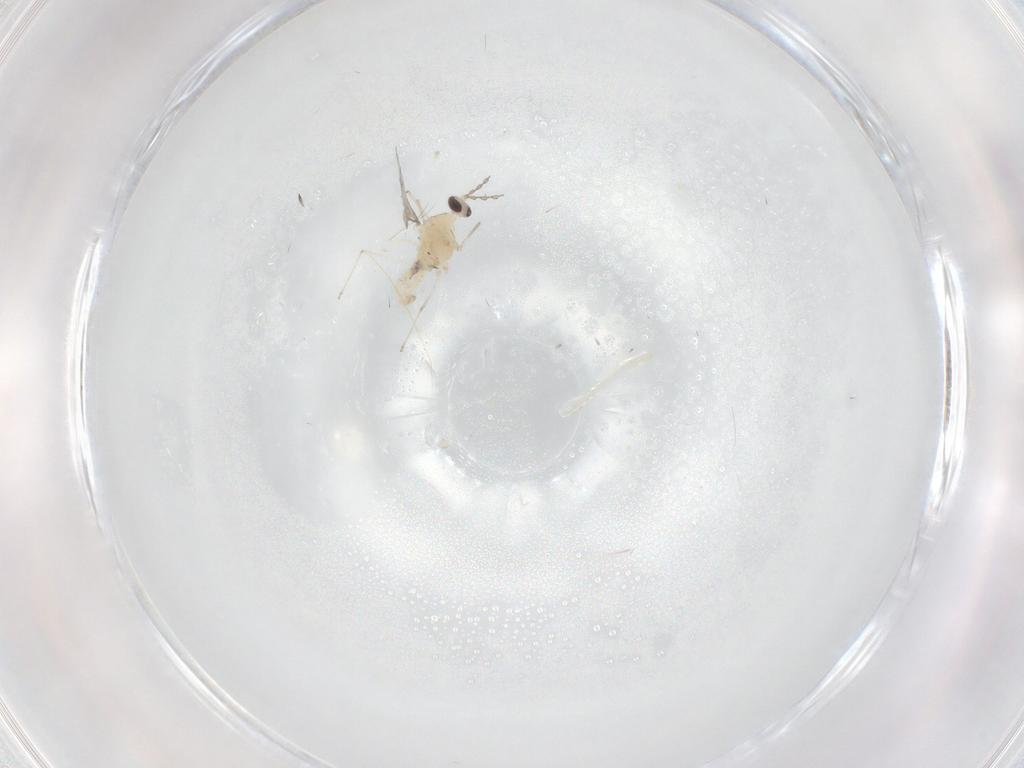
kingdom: Animalia
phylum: Arthropoda
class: Insecta
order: Diptera
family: Cecidomyiidae
